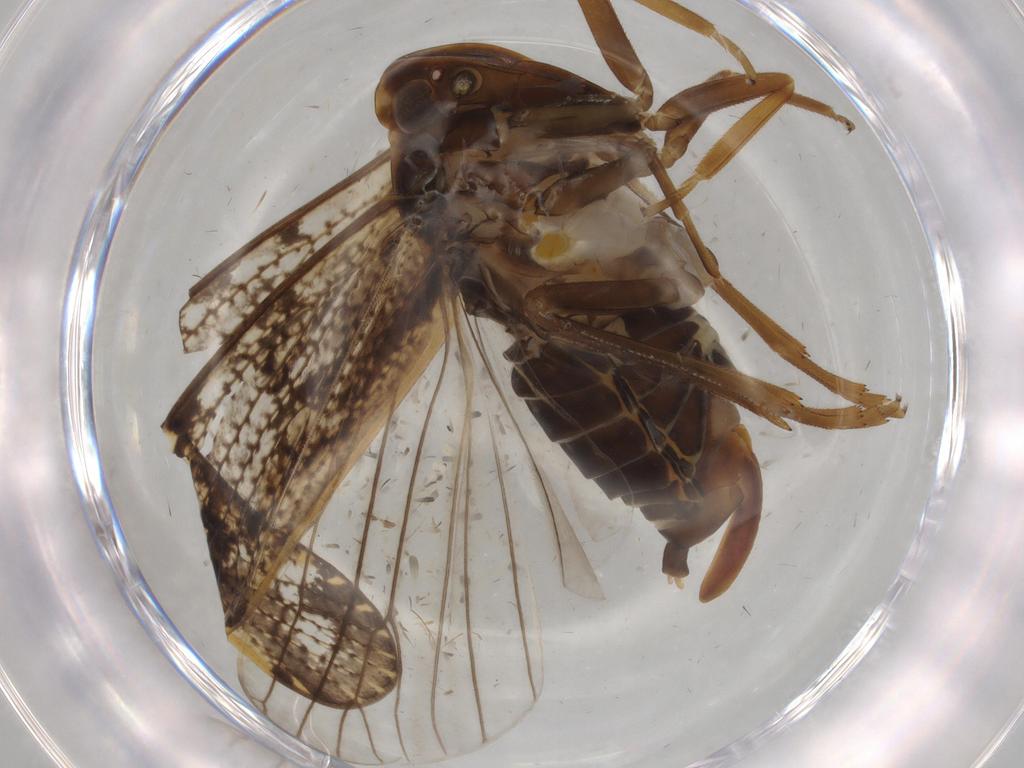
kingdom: Animalia
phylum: Arthropoda
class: Insecta
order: Hemiptera
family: Cixiidae
